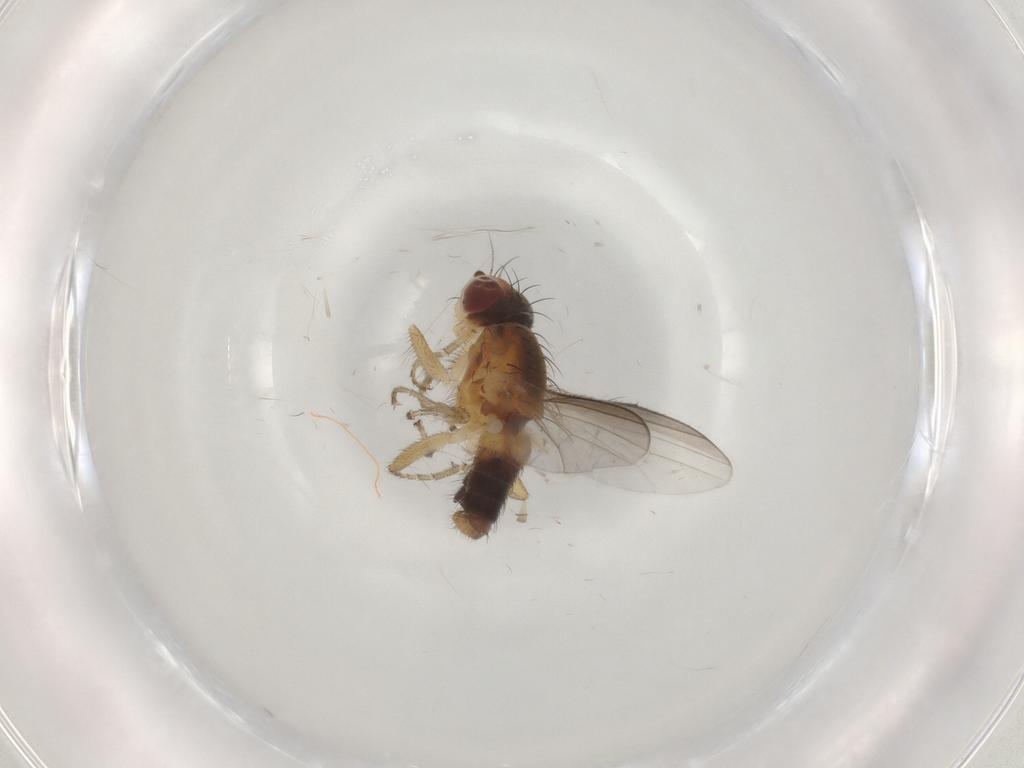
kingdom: Animalia
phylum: Arthropoda
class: Insecta
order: Diptera
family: Heleomyzidae
